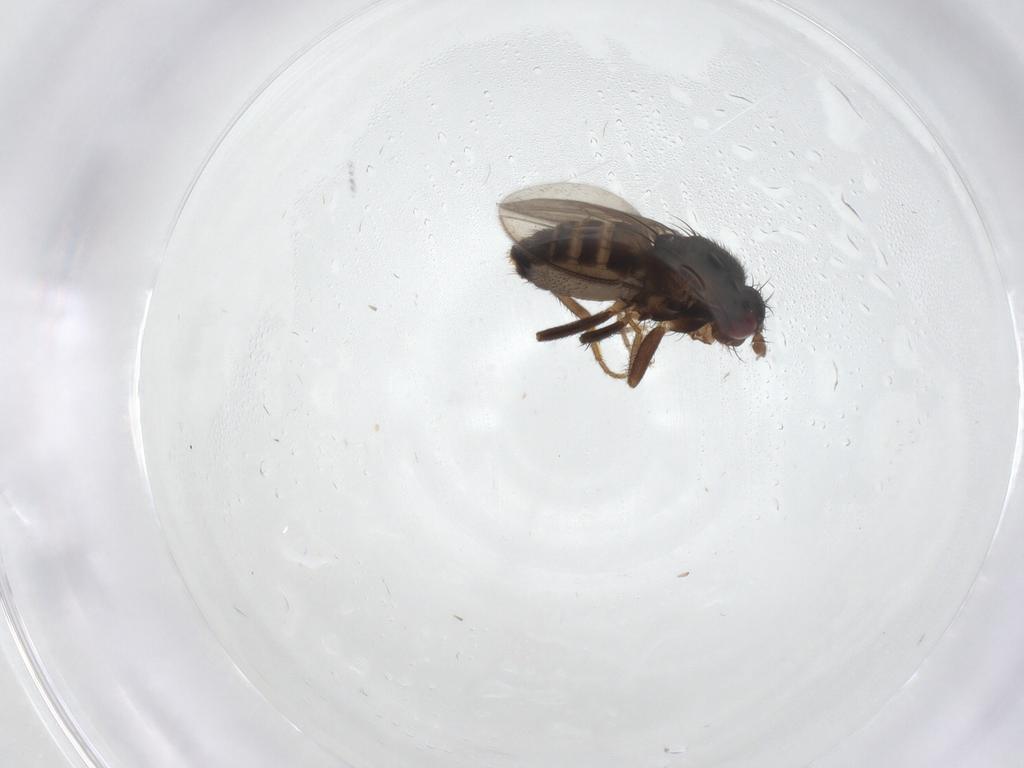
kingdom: Animalia
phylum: Arthropoda
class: Insecta
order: Diptera
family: Sphaeroceridae
